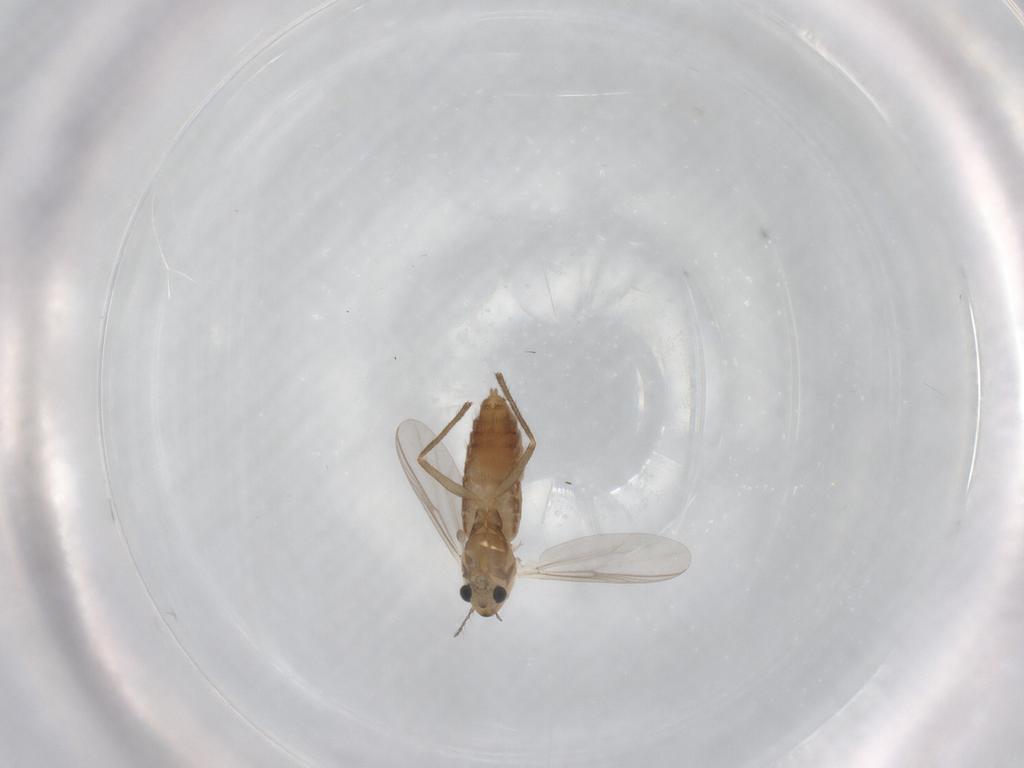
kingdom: Animalia
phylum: Arthropoda
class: Insecta
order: Diptera
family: Chironomidae
